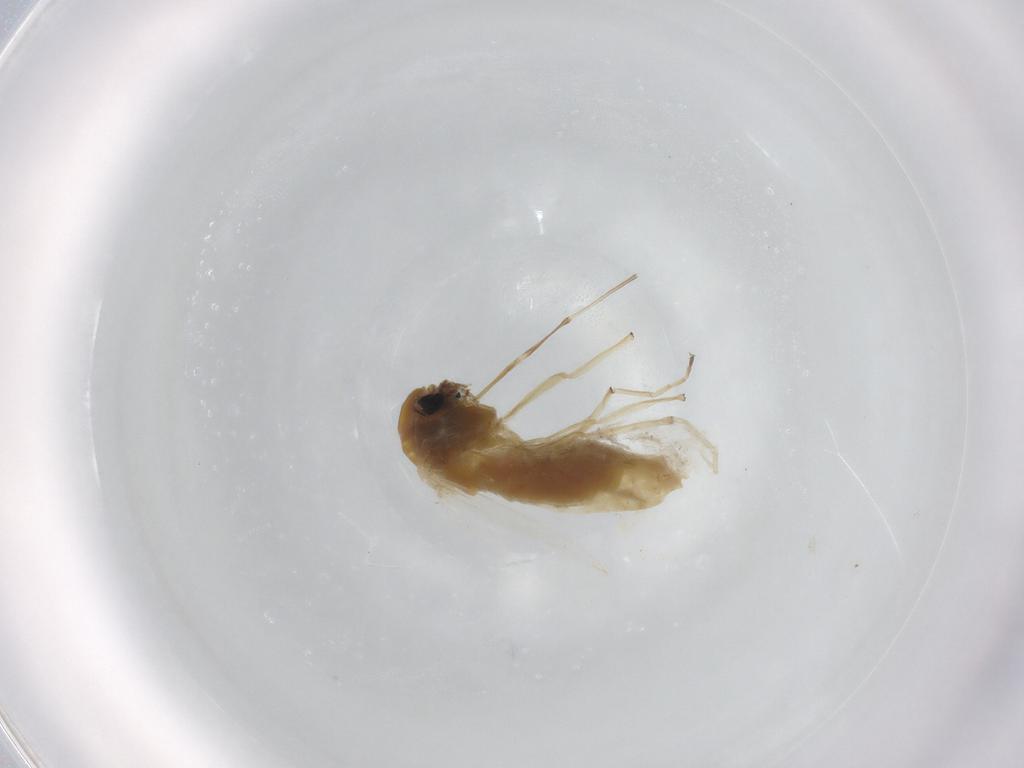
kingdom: Animalia
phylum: Arthropoda
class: Insecta
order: Diptera
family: Chironomidae
